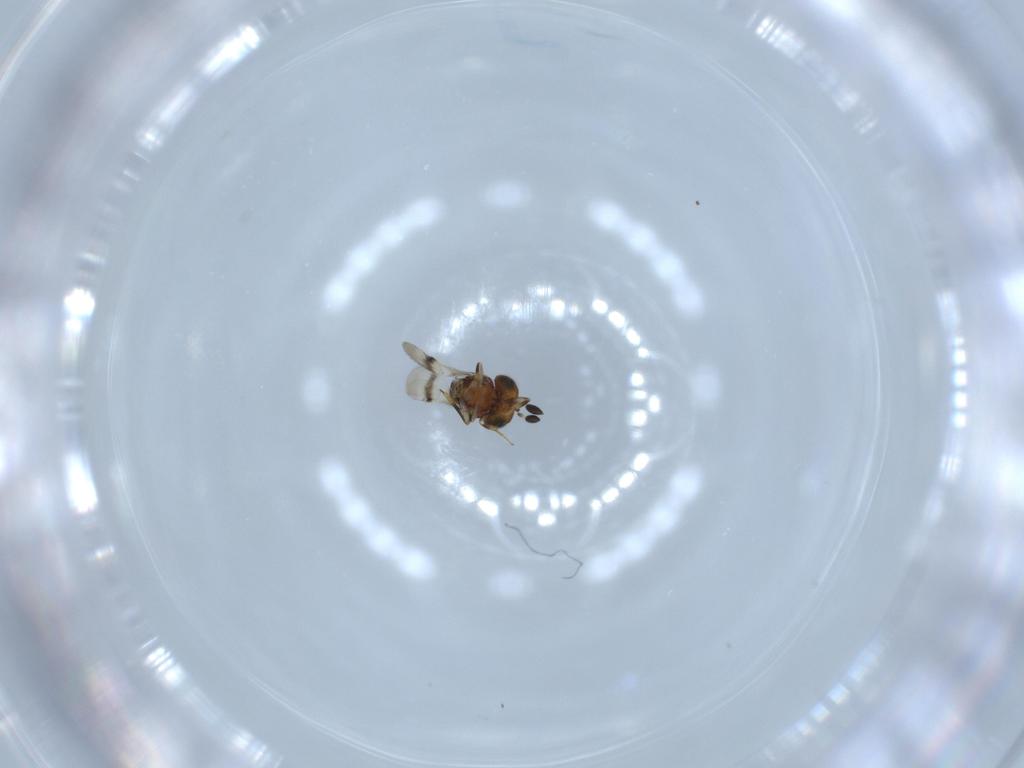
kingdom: Animalia
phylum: Arthropoda
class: Arachnida
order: Araneae
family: Pholcidae
